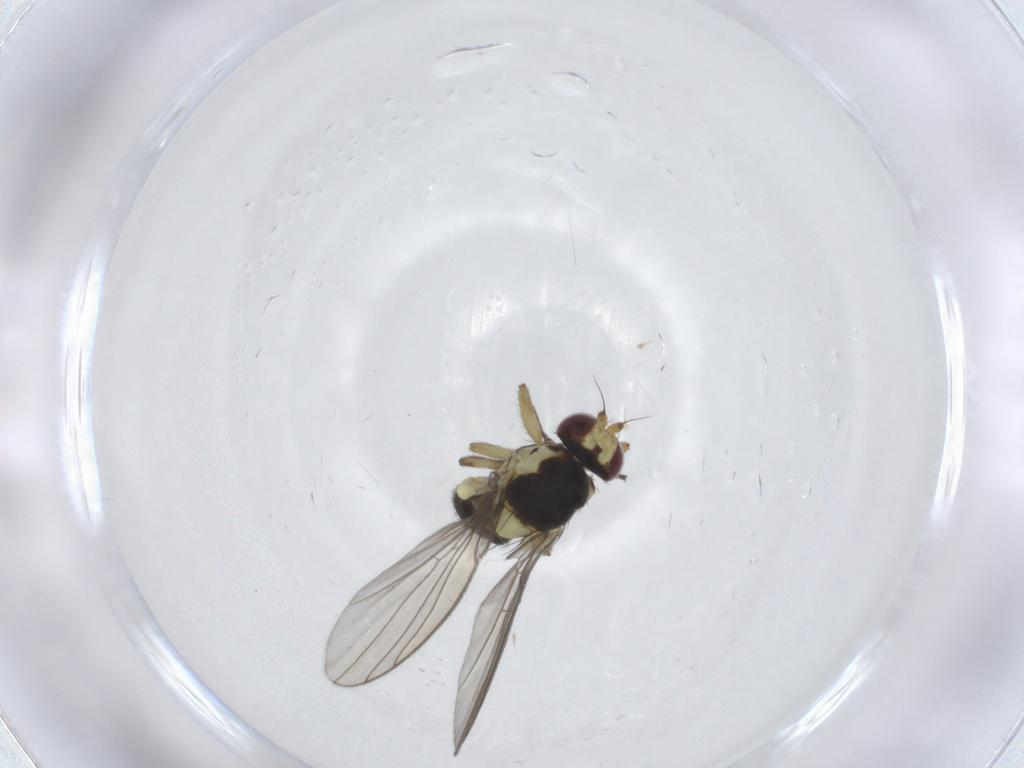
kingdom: Animalia
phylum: Arthropoda
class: Insecta
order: Diptera
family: Agromyzidae
